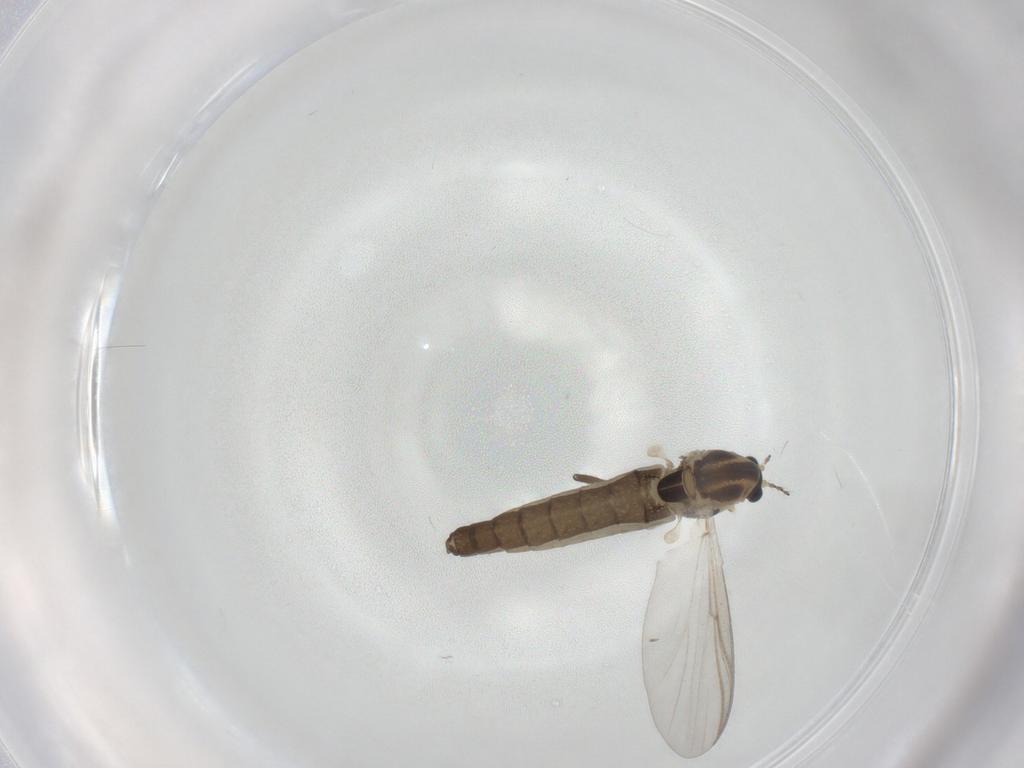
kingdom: Animalia
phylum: Arthropoda
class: Insecta
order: Diptera
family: Chironomidae
